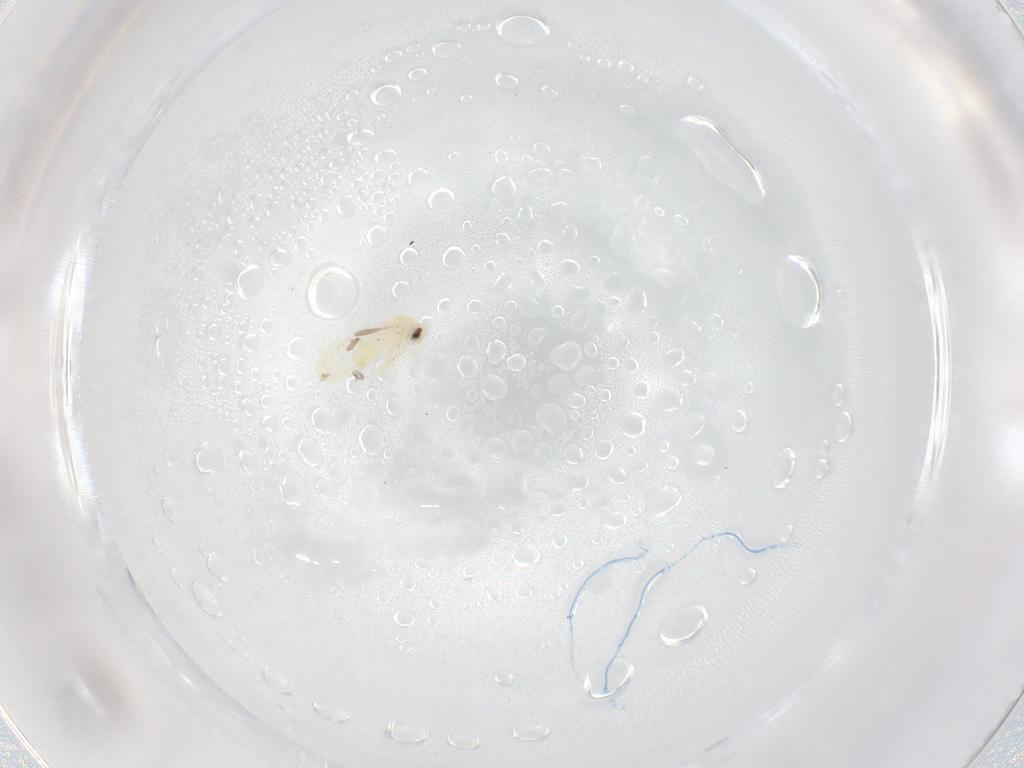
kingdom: Animalia
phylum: Arthropoda
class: Insecta
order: Hemiptera
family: Aleyrodidae
